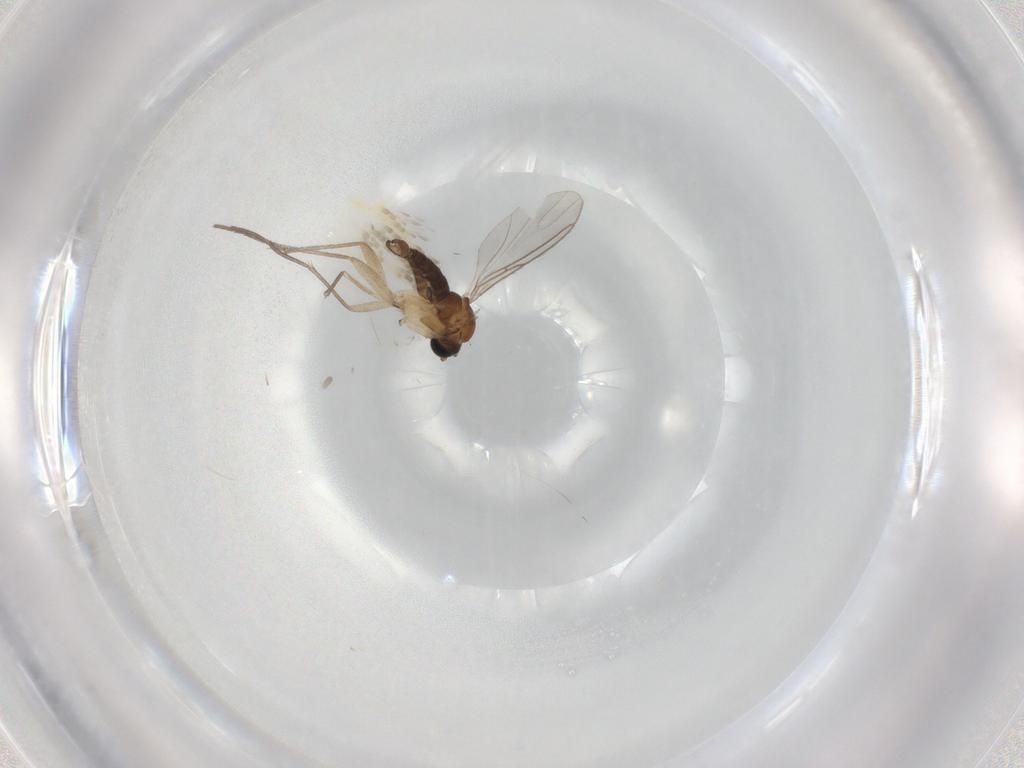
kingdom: Animalia
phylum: Arthropoda
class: Insecta
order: Diptera
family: Sciaridae
